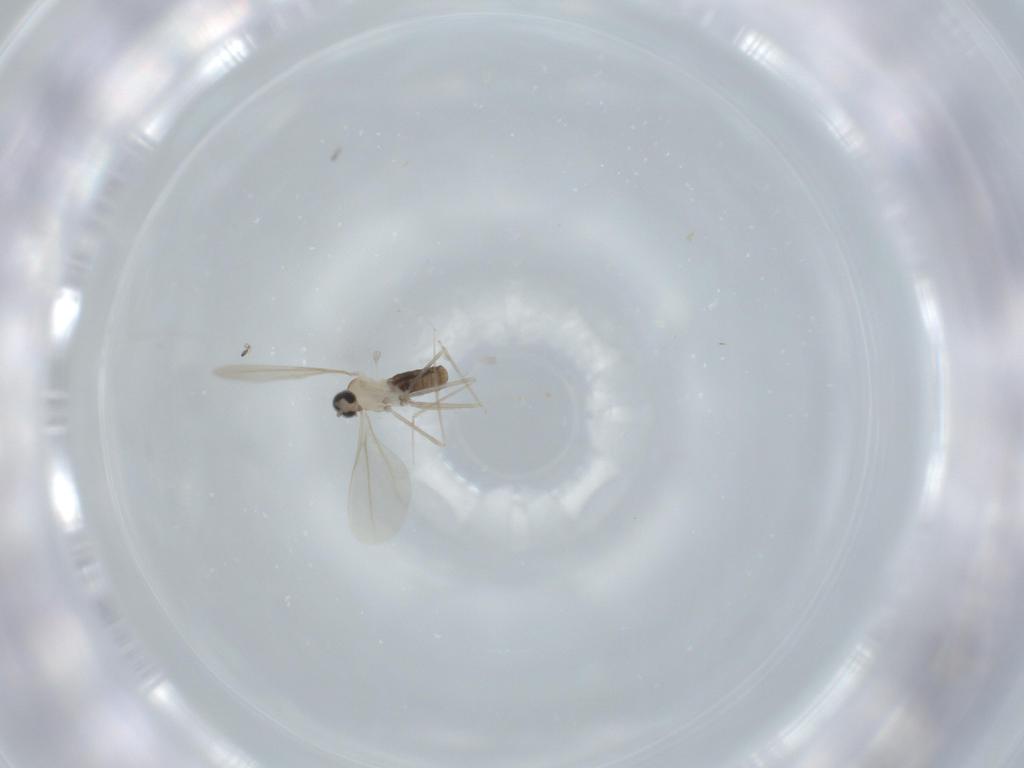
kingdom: Animalia
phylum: Arthropoda
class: Insecta
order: Diptera
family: Cecidomyiidae
